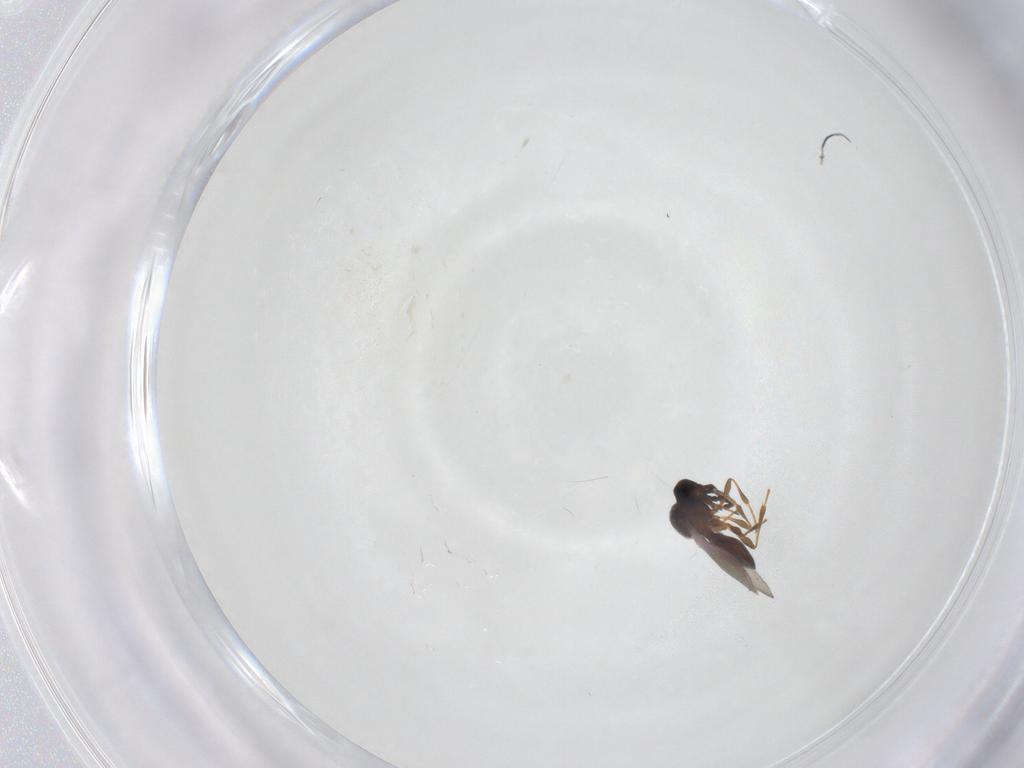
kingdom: Animalia
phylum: Arthropoda
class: Insecta
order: Hymenoptera
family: Platygastridae
